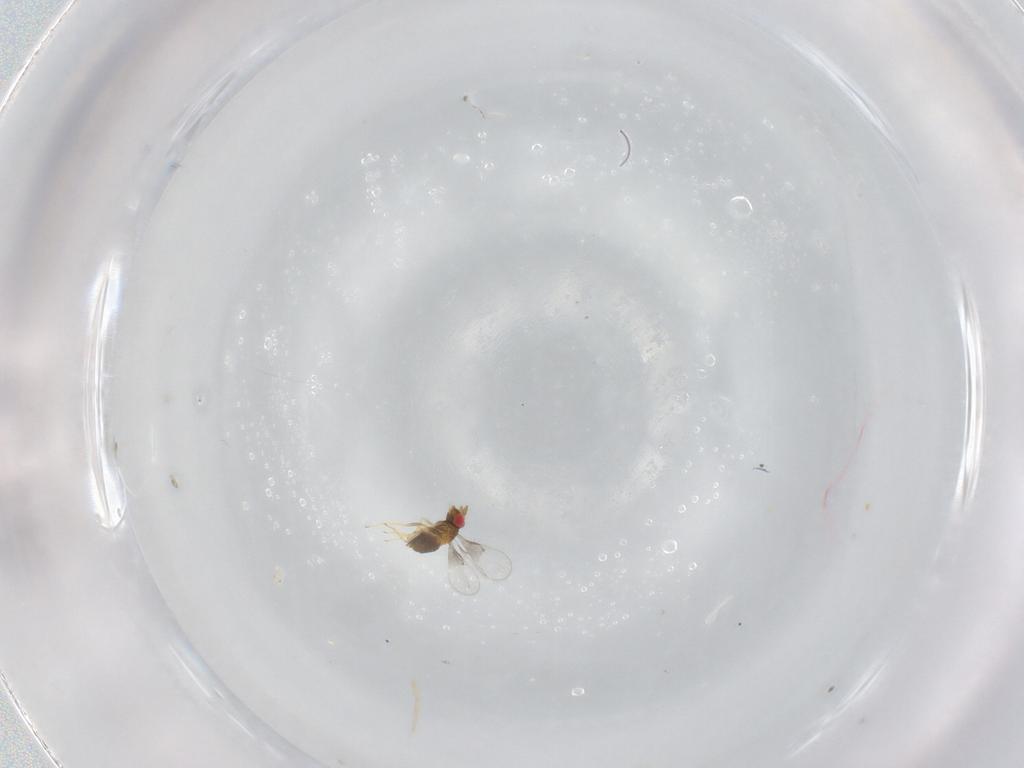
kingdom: Animalia
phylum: Arthropoda
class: Insecta
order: Hymenoptera
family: Trichogrammatidae
